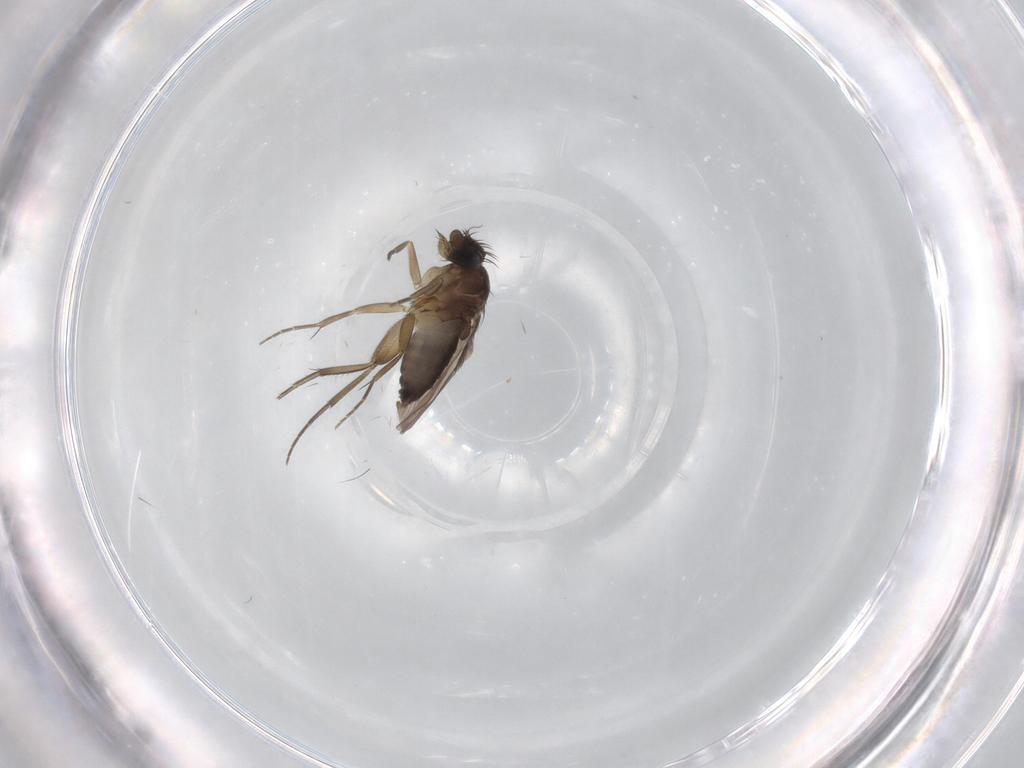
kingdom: Animalia
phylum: Arthropoda
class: Insecta
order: Diptera
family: Phoridae
